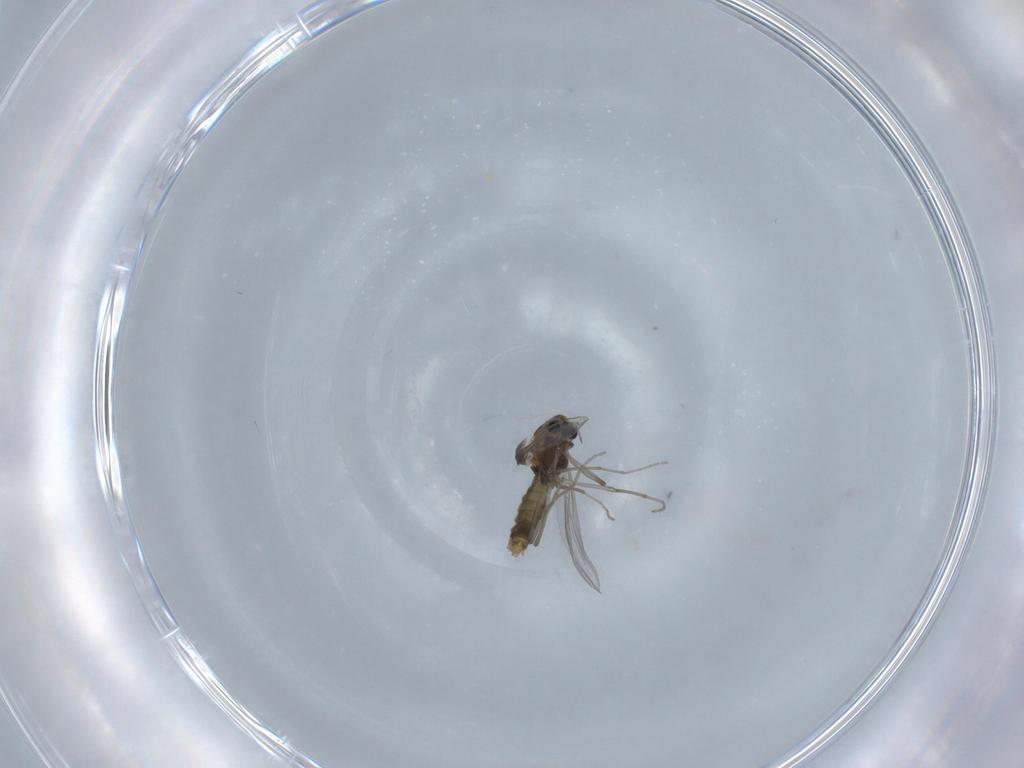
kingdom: Animalia
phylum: Arthropoda
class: Insecta
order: Diptera
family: Chironomidae
